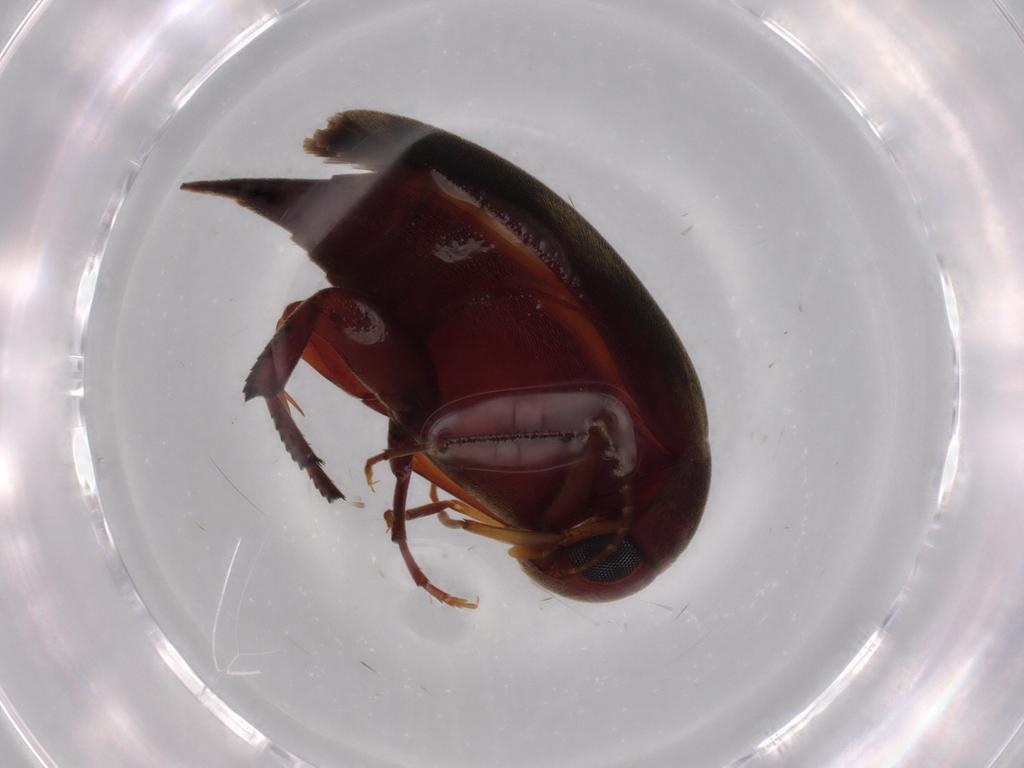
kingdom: Animalia
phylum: Arthropoda
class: Insecta
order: Coleoptera
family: Mordellidae
